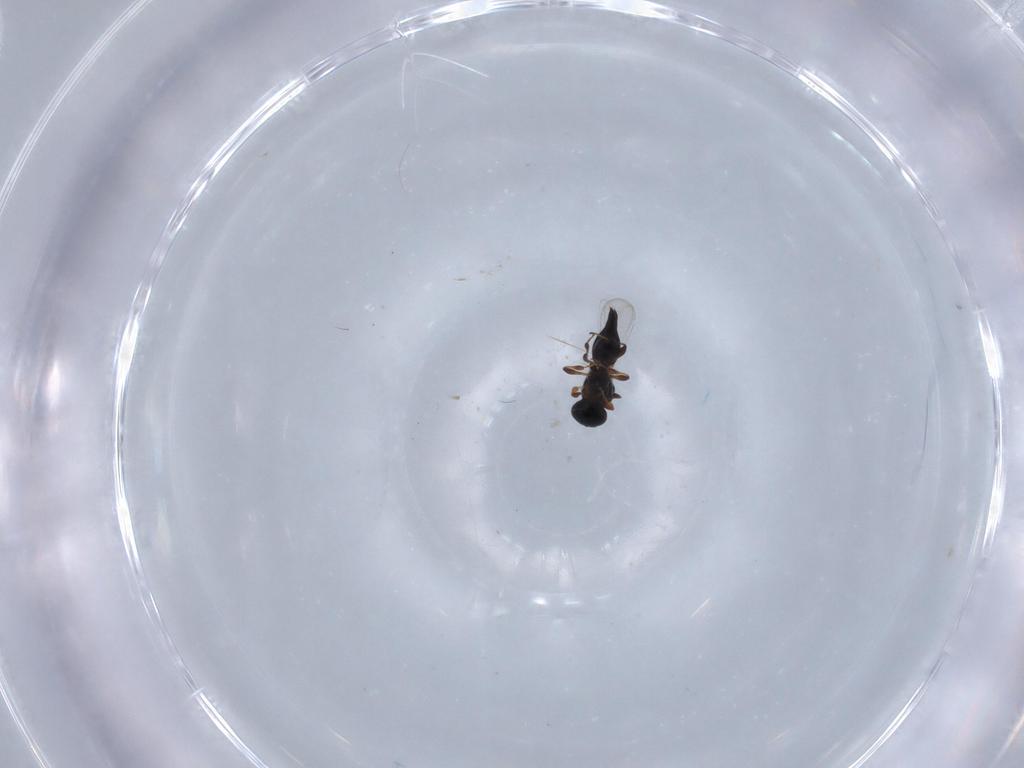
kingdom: Animalia
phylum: Arthropoda
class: Insecta
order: Hymenoptera
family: Platygastridae
